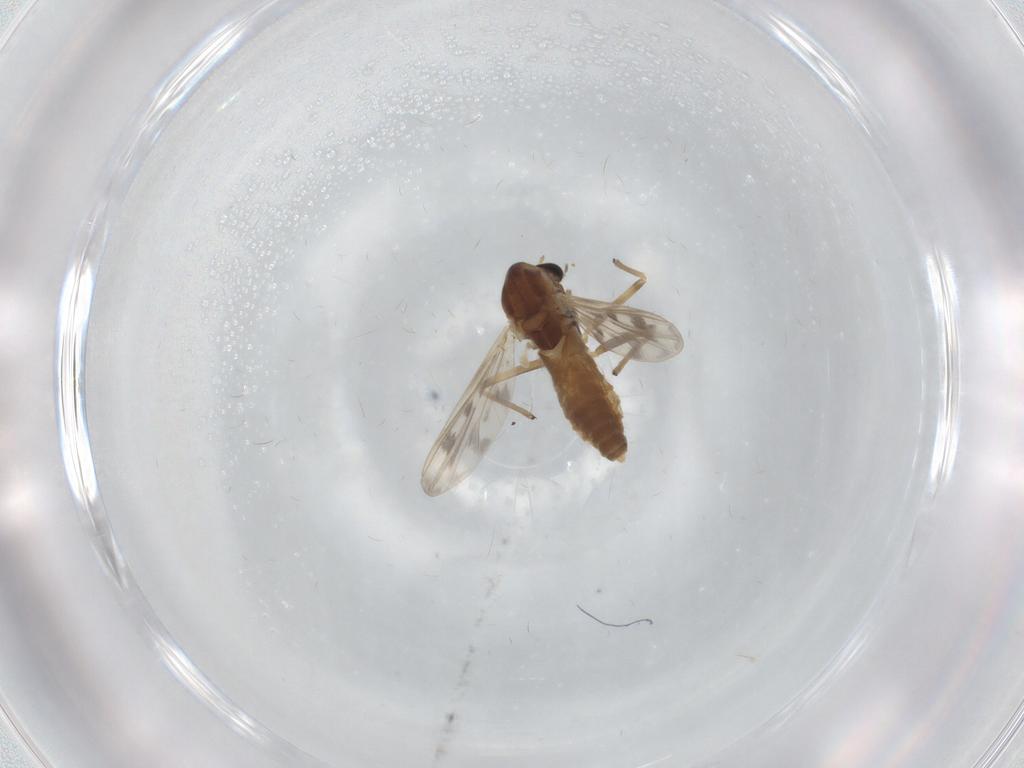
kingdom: Animalia
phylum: Arthropoda
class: Insecta
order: Diptera
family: Chironomidae
